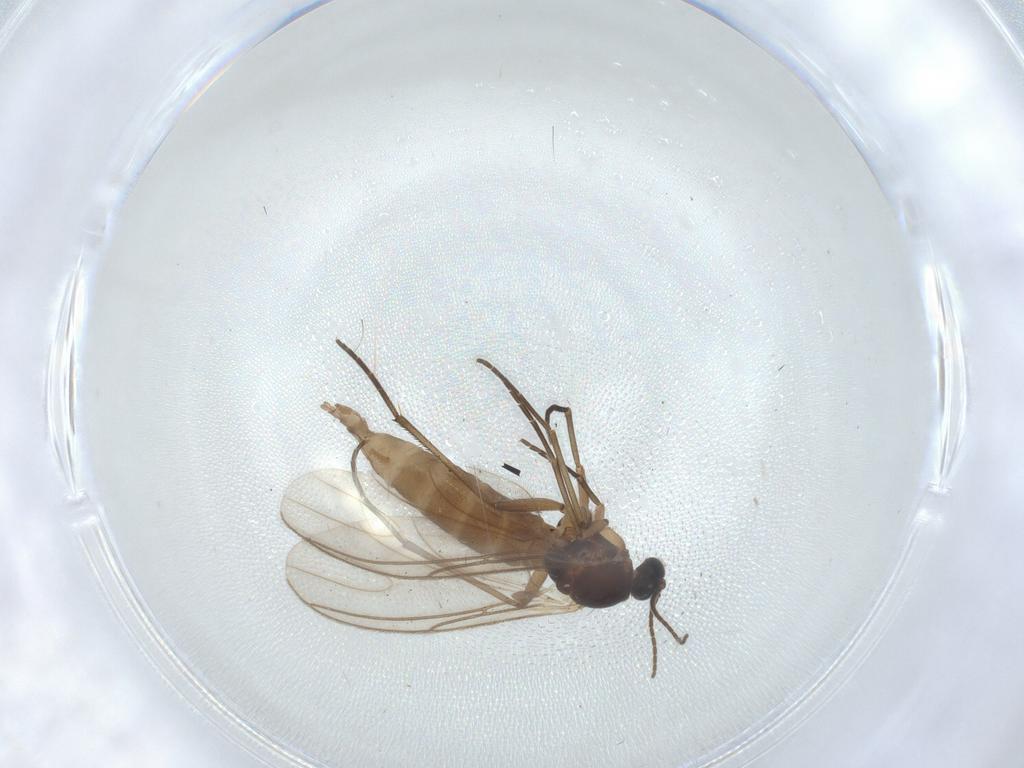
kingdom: Animalia
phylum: Arthropoda
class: Insecta
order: Diptera
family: Sciaridae
